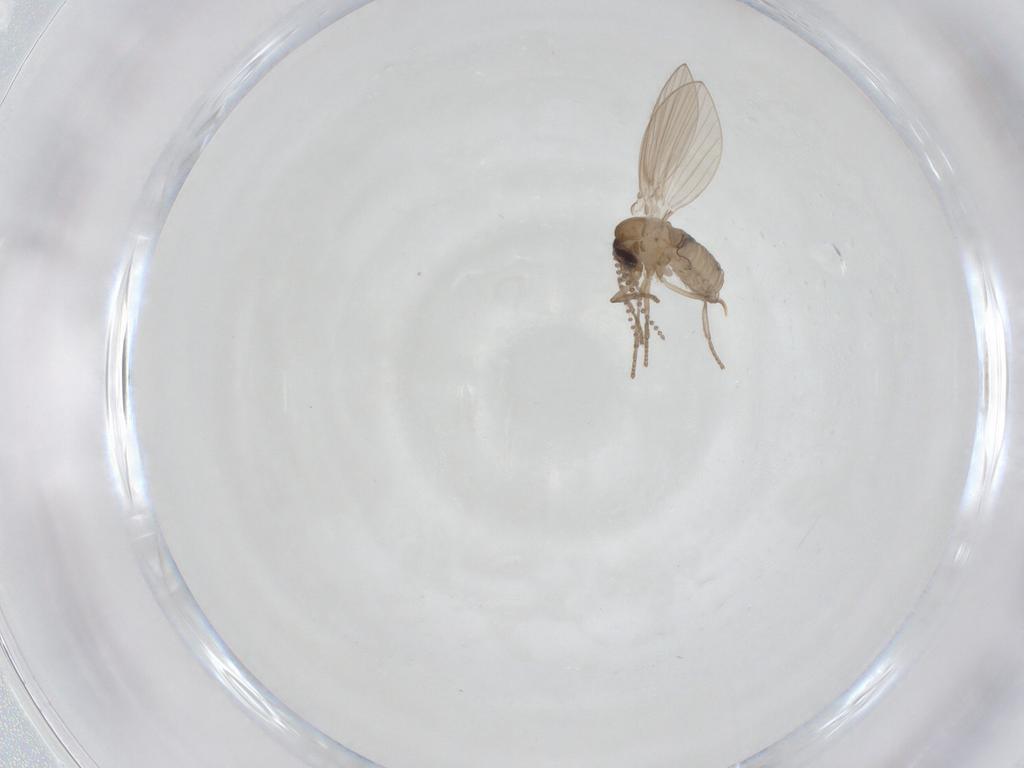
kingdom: Animalia
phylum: Arthropoda
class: Insecta
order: Diptera
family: Psychodidae
